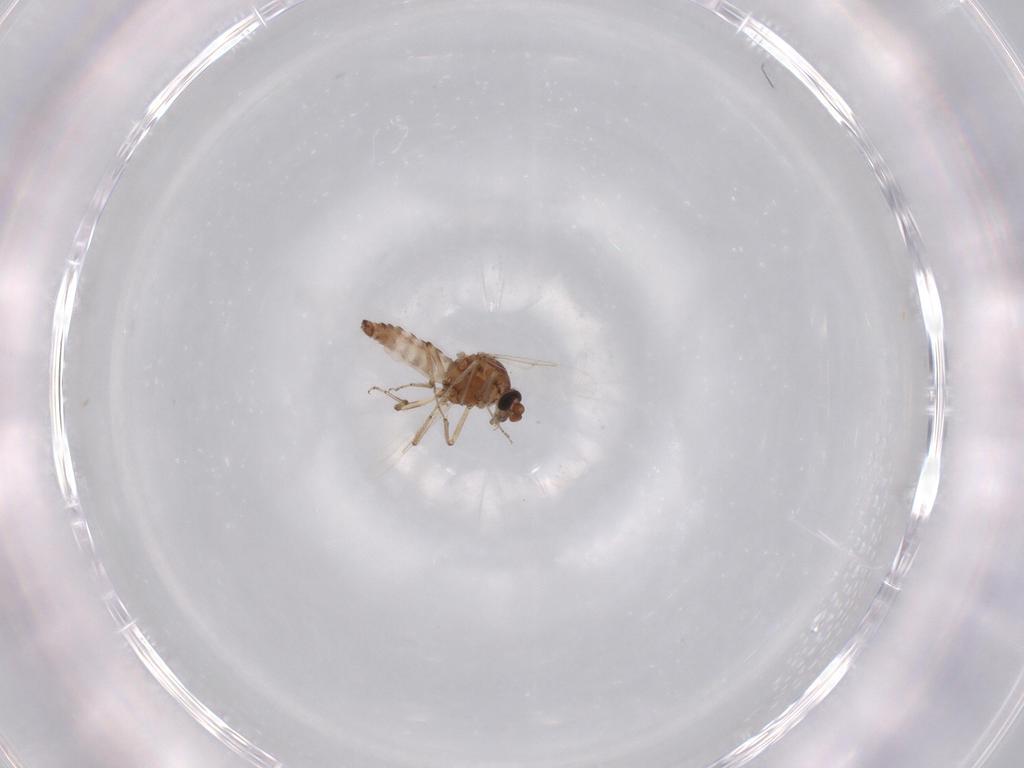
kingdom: Animalia
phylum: Arthropoda
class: Insecta
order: Diptera
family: Ceratopogonidae
